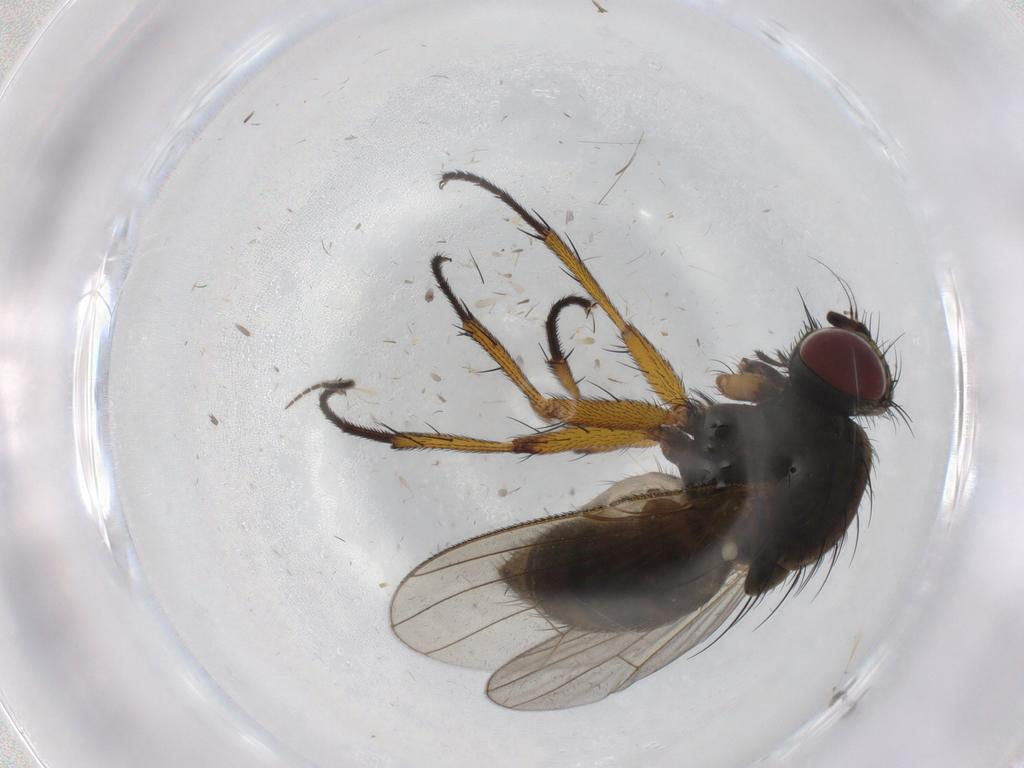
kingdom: Animalia
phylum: Arthropoda
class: Insecta
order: Diptera
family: Muscidae
